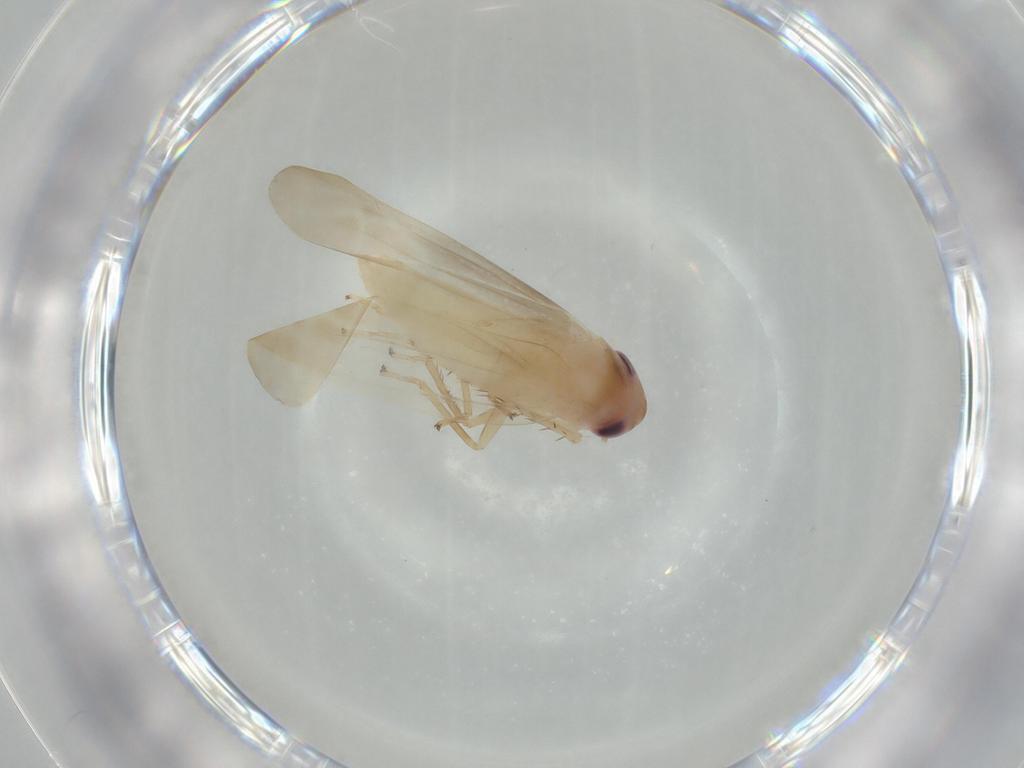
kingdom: Animalia
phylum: Arthropoda
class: Insecta
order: Hemiptera
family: Cicadellidae
